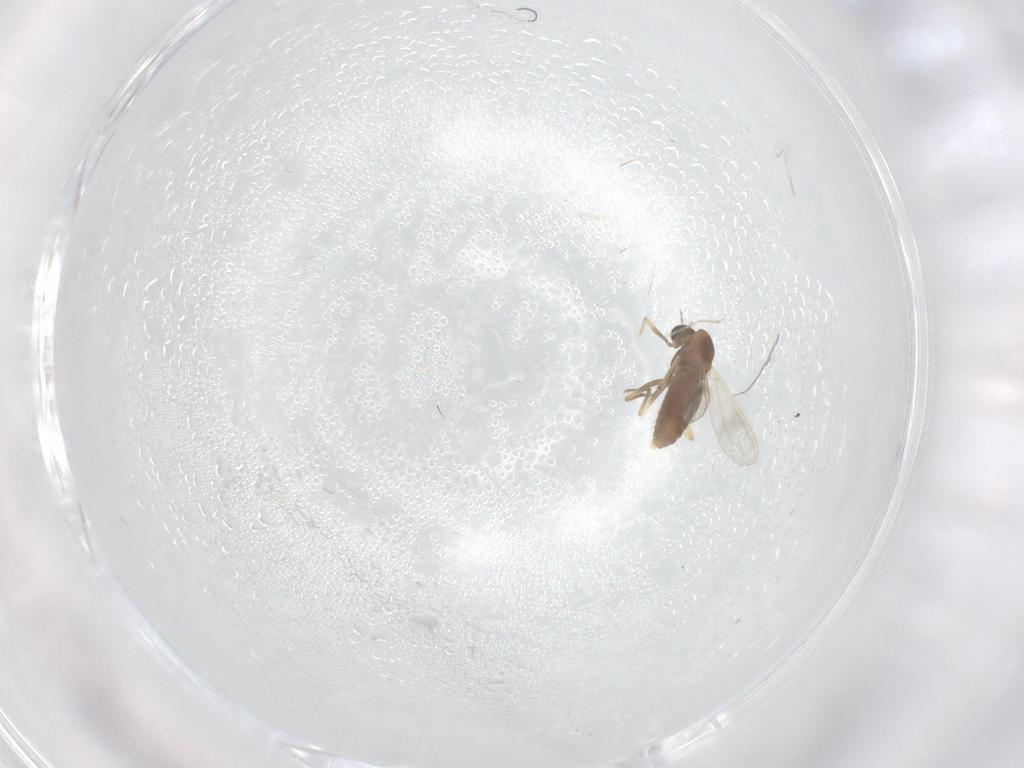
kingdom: Animalia
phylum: Arthropoda
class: Insecta
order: Diptera
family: Chironomidae
